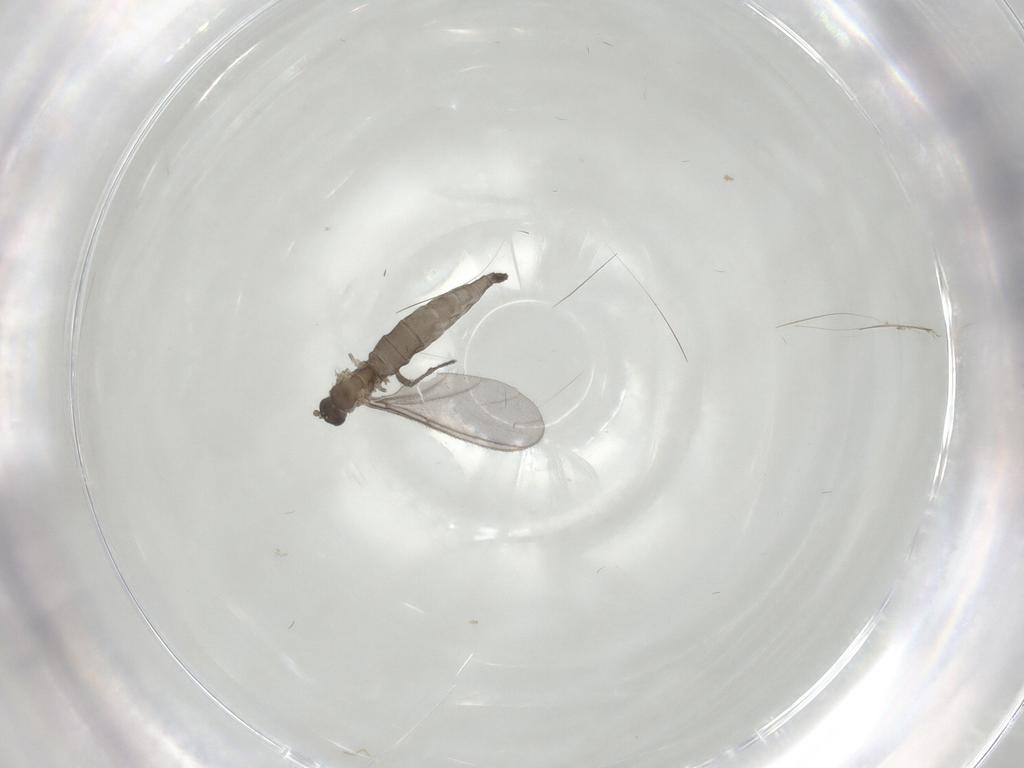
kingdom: Animalia
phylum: Arthropoda
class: Insecta
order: Diptera
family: Sciaridae
